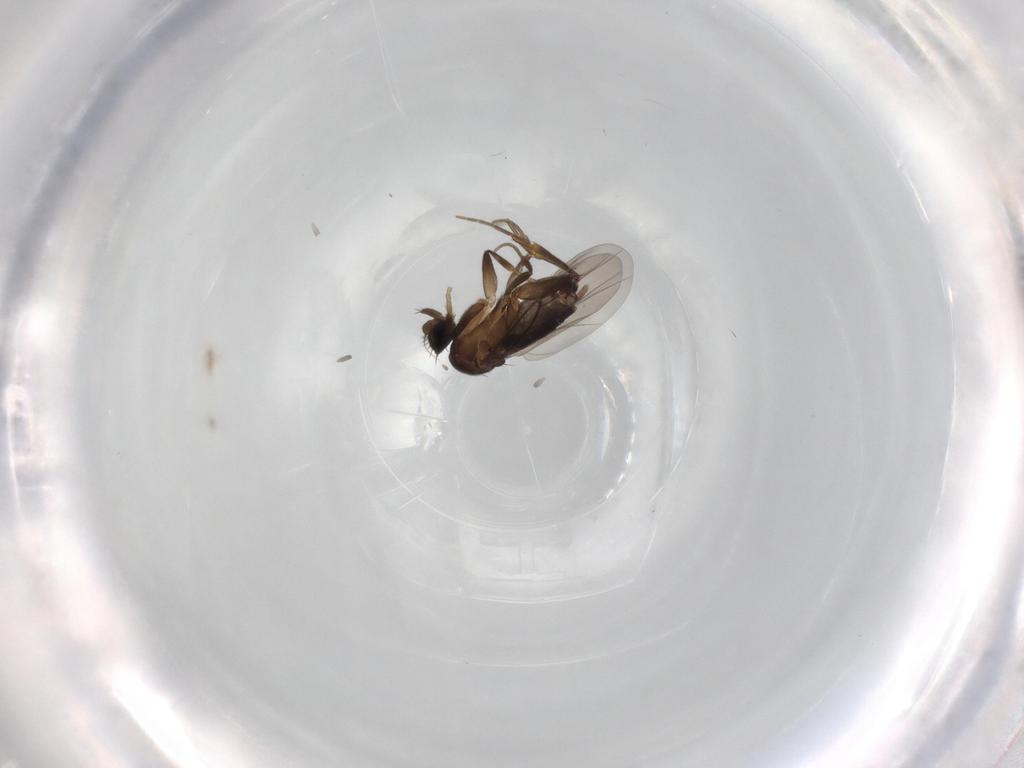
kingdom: Animalia
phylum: Arthropoda
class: Insecta
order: Diptera
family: Phoridae
